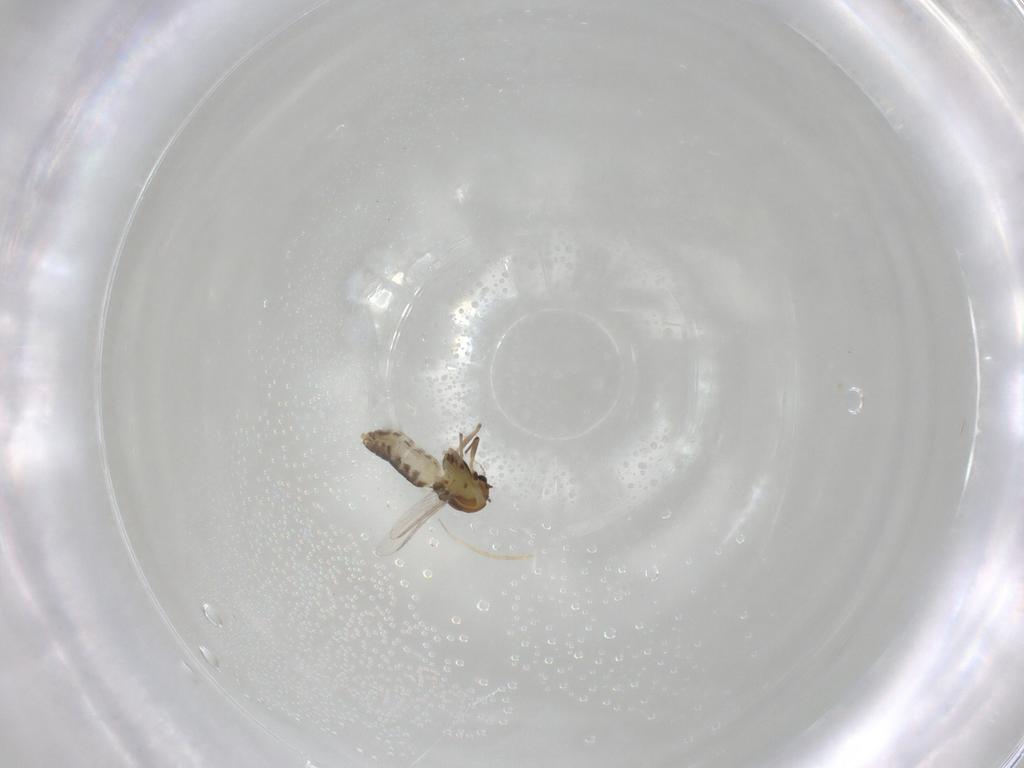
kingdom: Animalia
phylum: Arthropoda
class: Insecta
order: Diptera
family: Chironomidae
